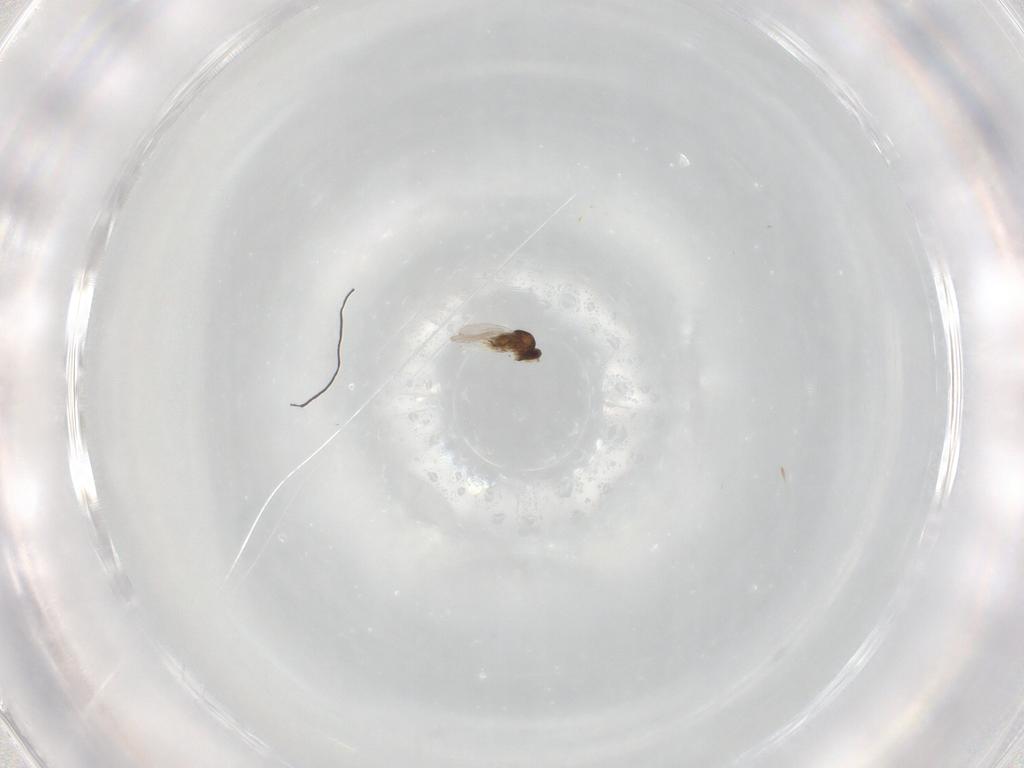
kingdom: Animalia
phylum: Arthropoda
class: Insecta
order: Hymenoptera
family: Encyrtidae
